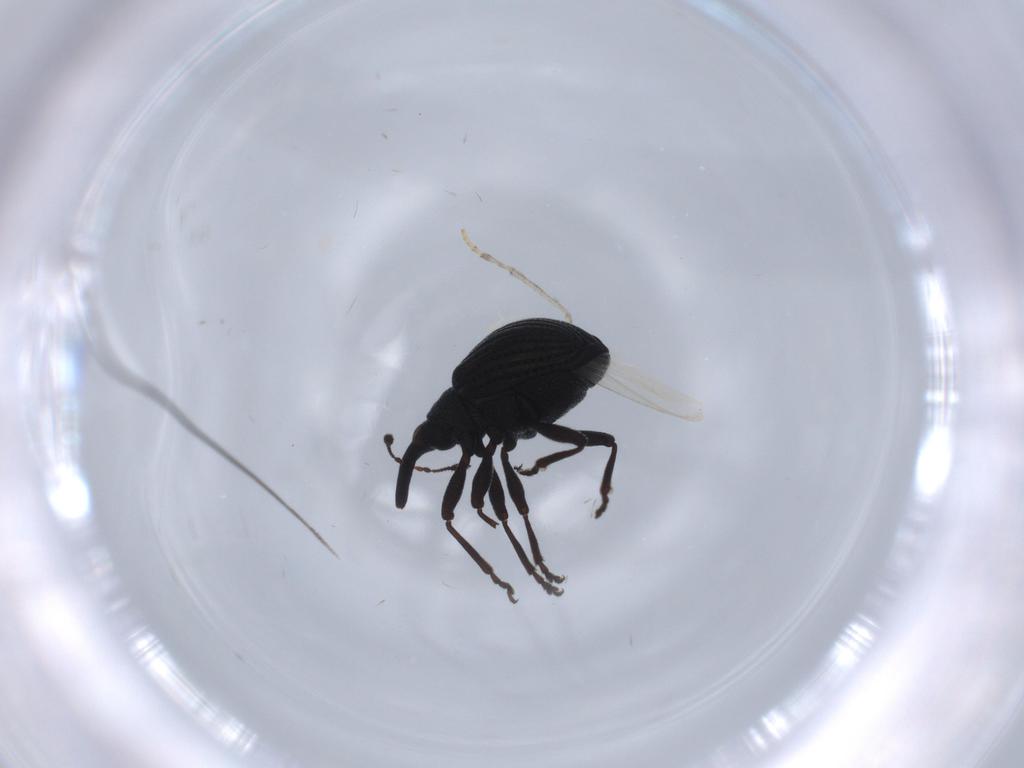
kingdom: Animalia
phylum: Arthropoda
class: Insecta
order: Coleoptera
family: Brentidae
